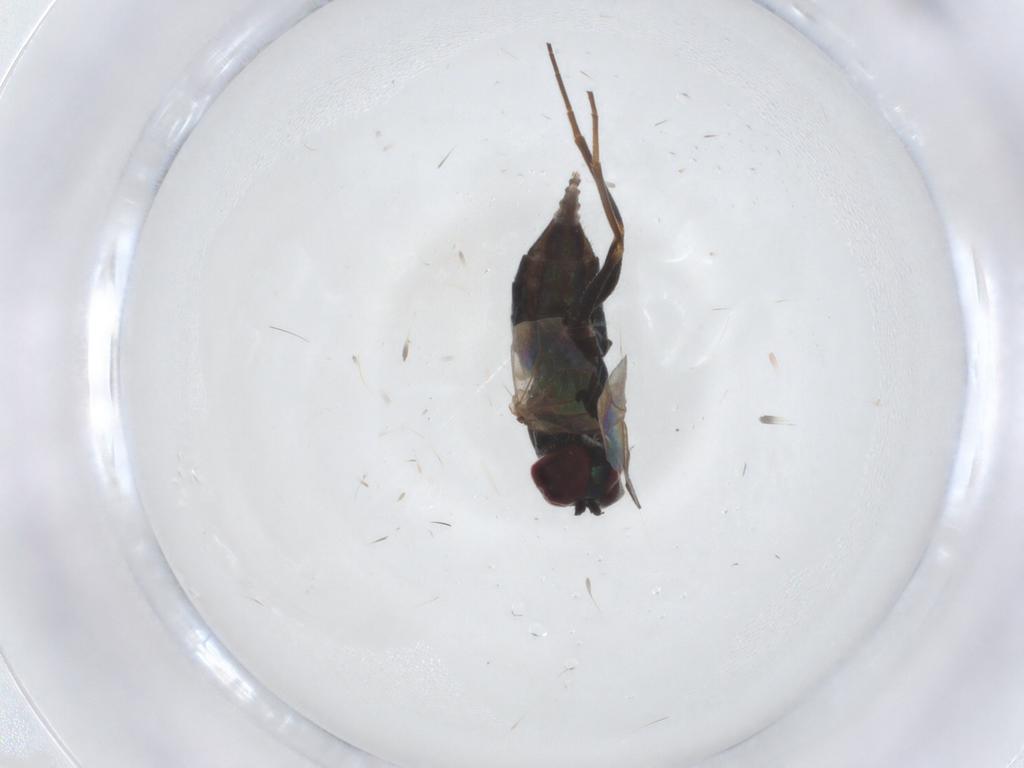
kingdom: Animalia
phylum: Arthropoda
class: Insecta
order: Diptera
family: Dolichopodidae
